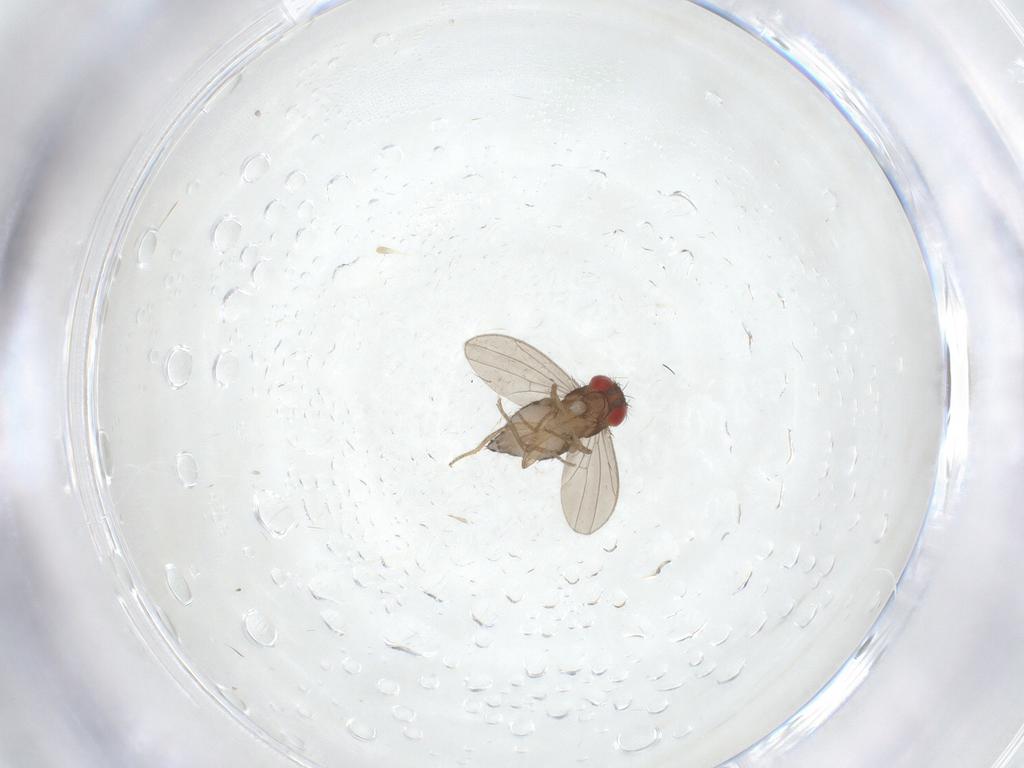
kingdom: Animalia
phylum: Arthropoda
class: Insecta
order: Diptera
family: Drosophilidae
